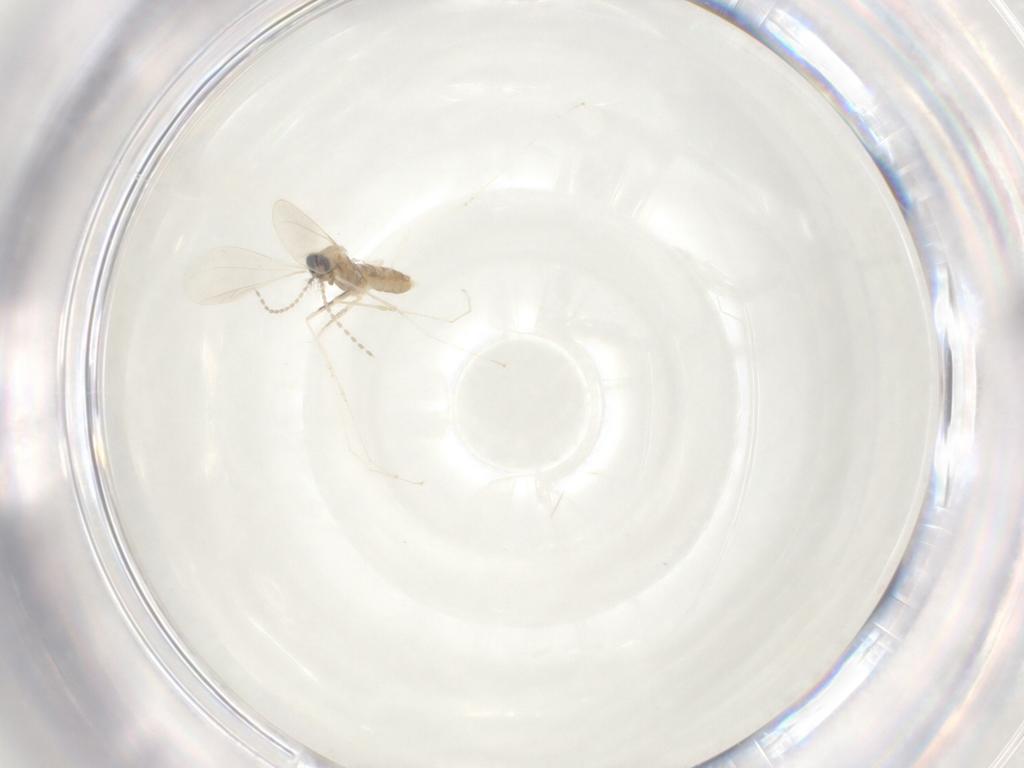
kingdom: Animalia
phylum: Arthropoda
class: Insecta
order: Diptera
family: Cecidomyiidae
